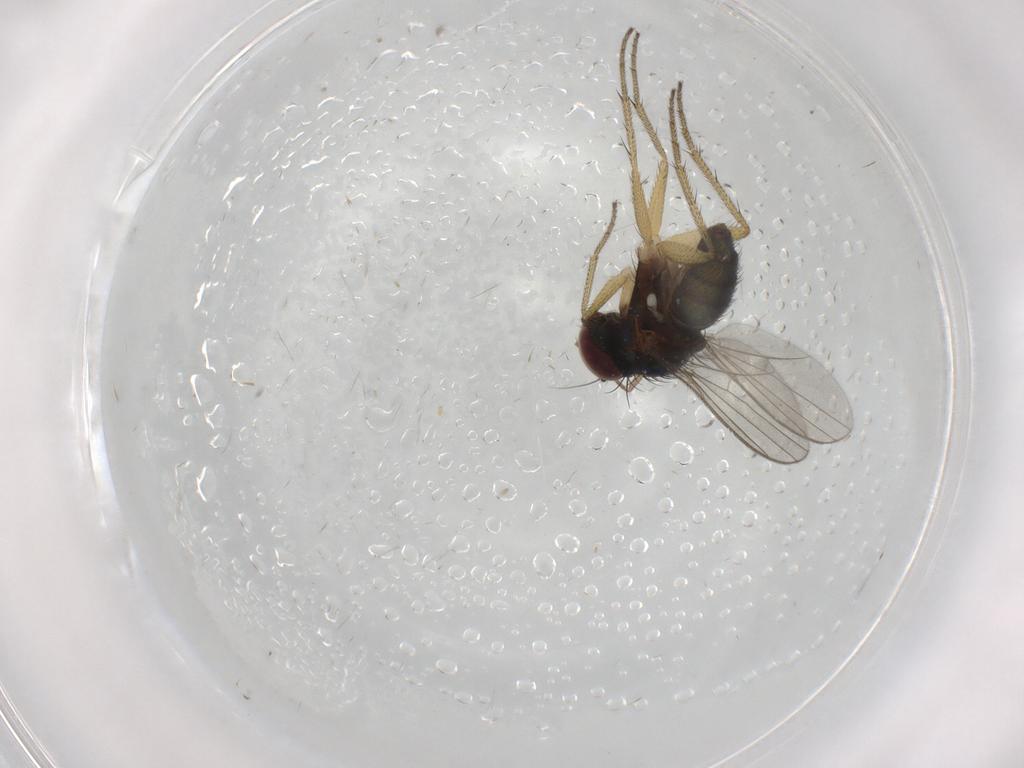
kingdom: Animalia
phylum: Arthropoda
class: Insecta
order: Diptera
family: Chironomidae
